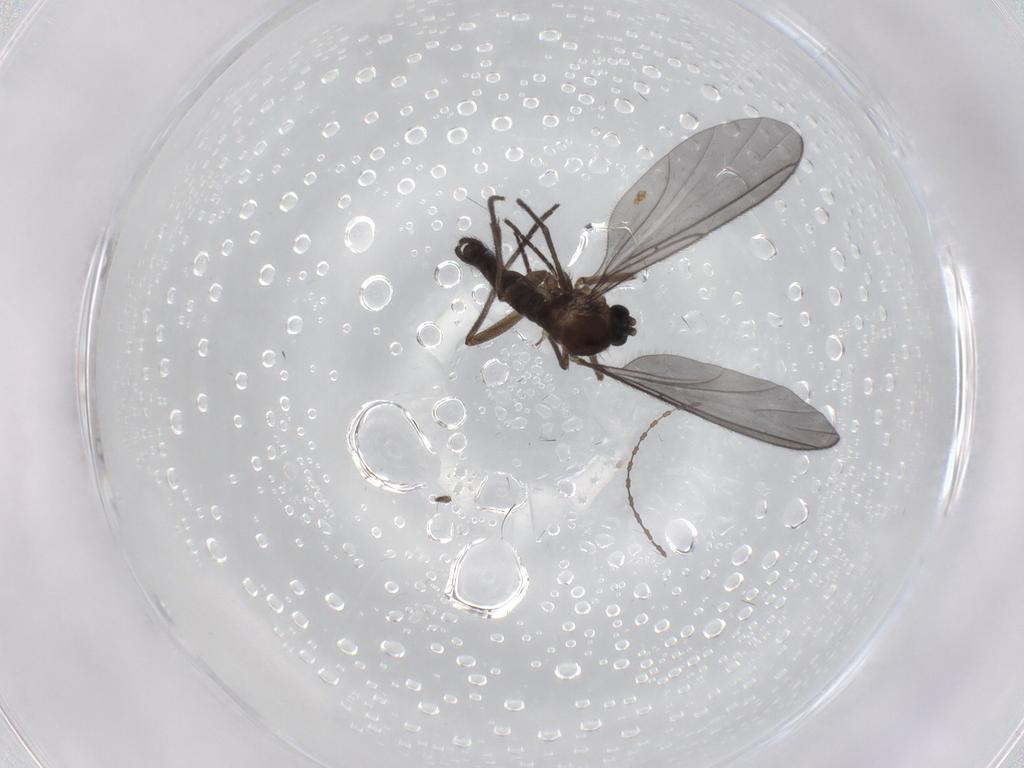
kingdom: Animalia
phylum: Arthropoda
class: Insecta
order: Diptera
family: Sciaridae
